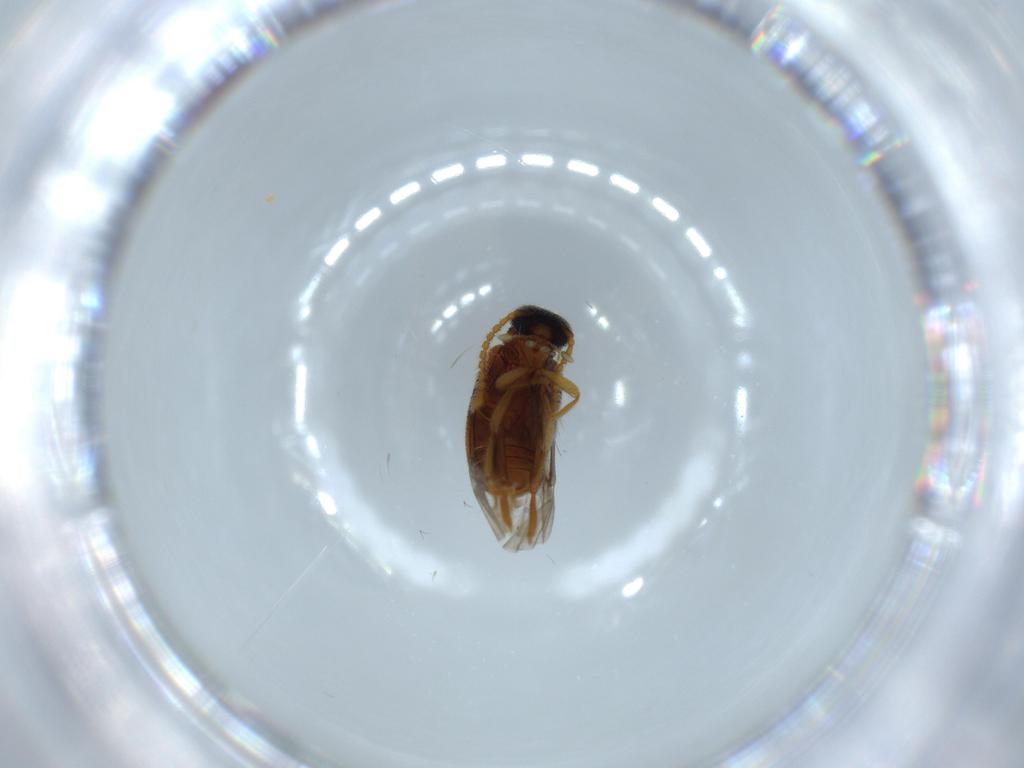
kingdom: Animalia
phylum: Arthropoda
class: Insecta
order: Coleoptera
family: Aderidae
